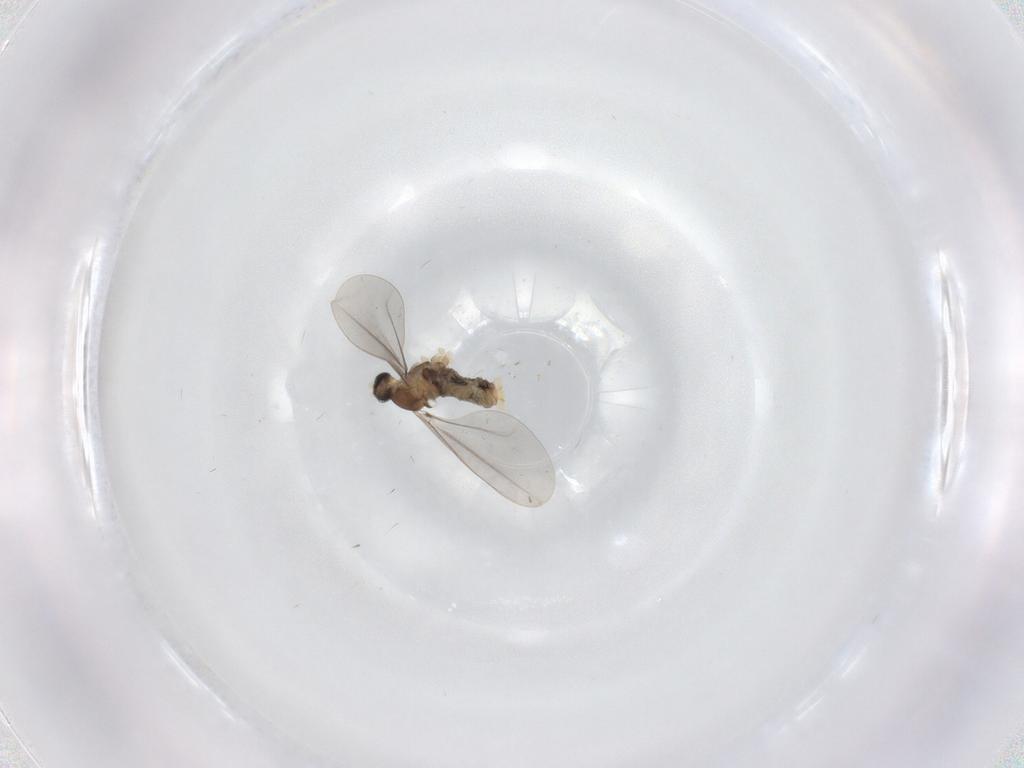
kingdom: Animalia
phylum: Arthropoda
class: Insecta
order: Diptera
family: Cecidomyiidae
